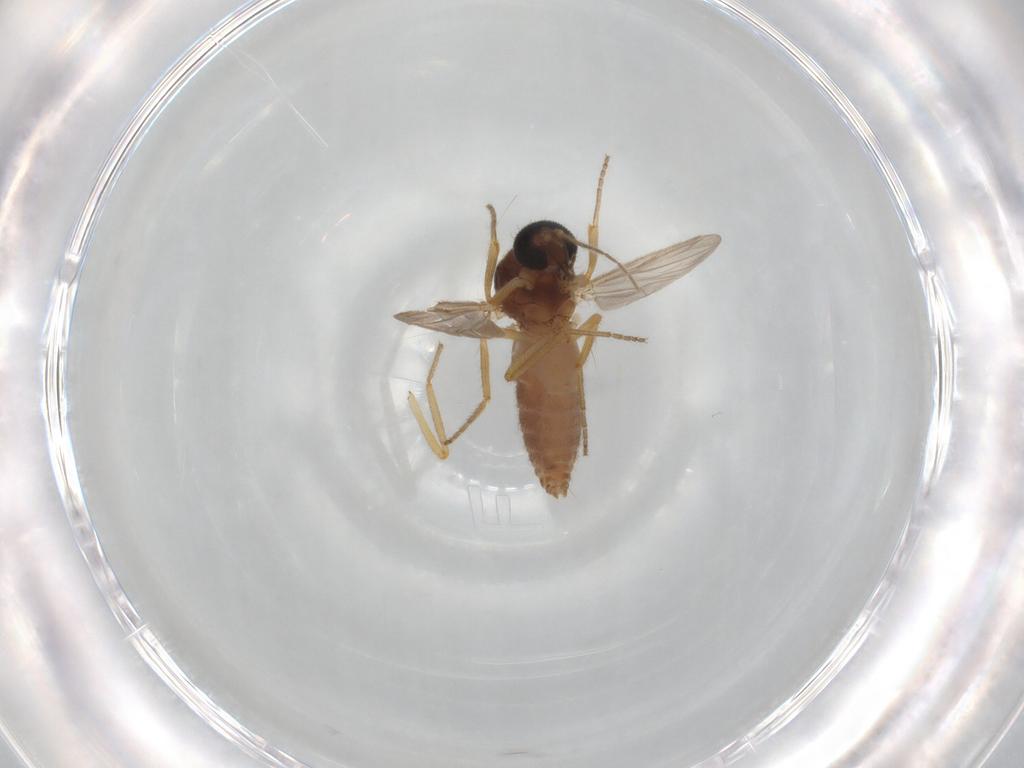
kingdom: Animalia
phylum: Arthropoda
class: Insecta
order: Diptera
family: Ceratopogonidae
